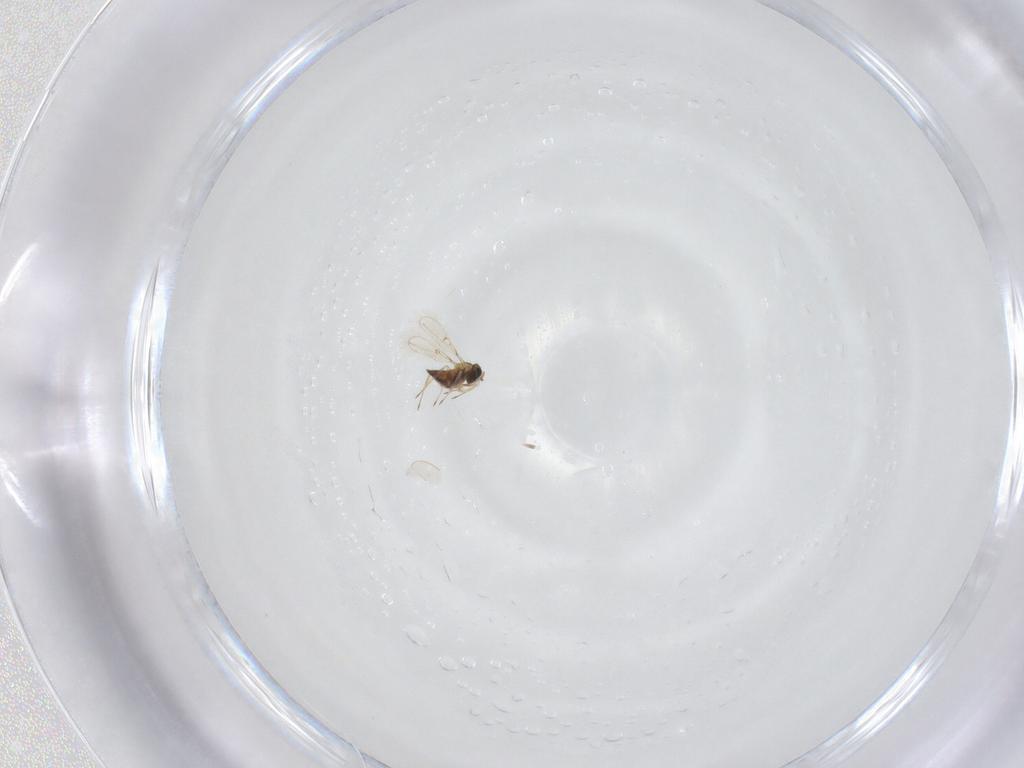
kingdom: Animalia
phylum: Arthropoda
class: Insecta
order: Hymenoptera
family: Trichogrammatidae
